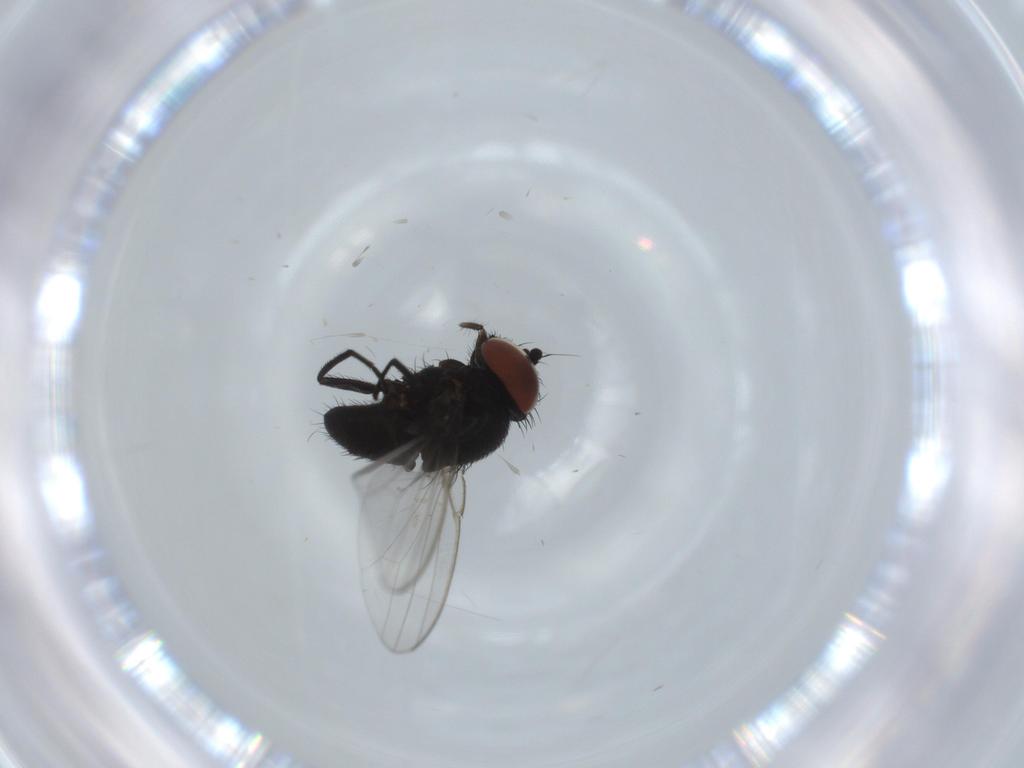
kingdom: Animalia
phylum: Arthropoda
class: Insecta
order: Diptera
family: Milichiidae
